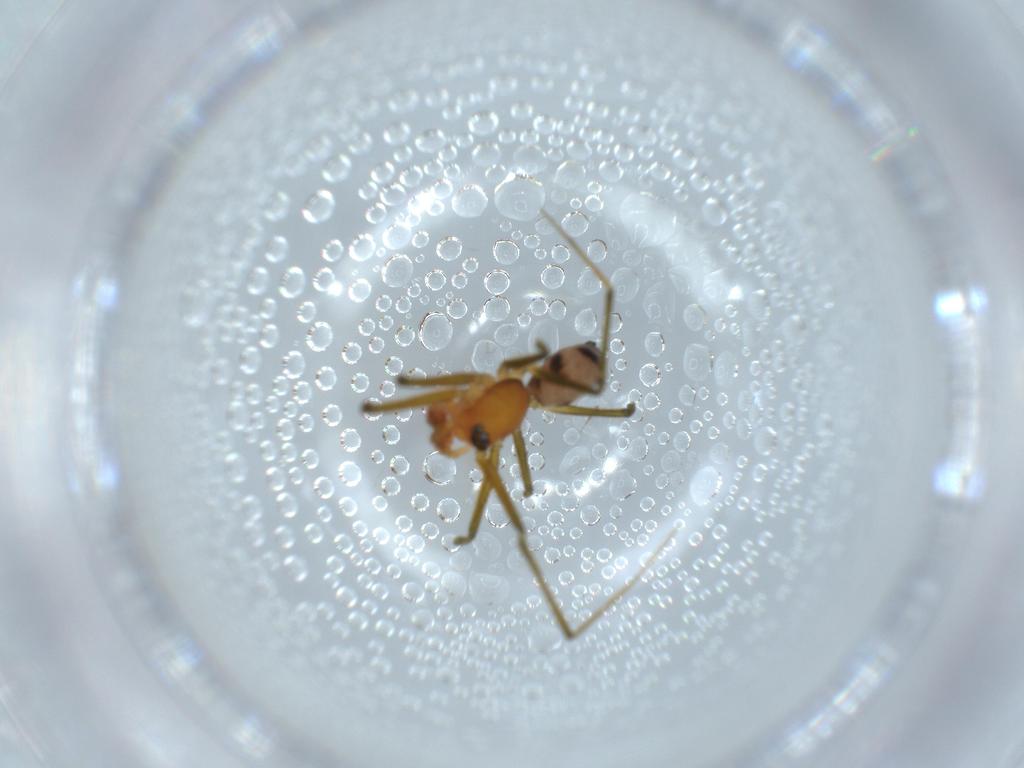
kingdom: Animalia
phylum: Arthropoda
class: Arachnida
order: Araneae
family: Linyphiidae
